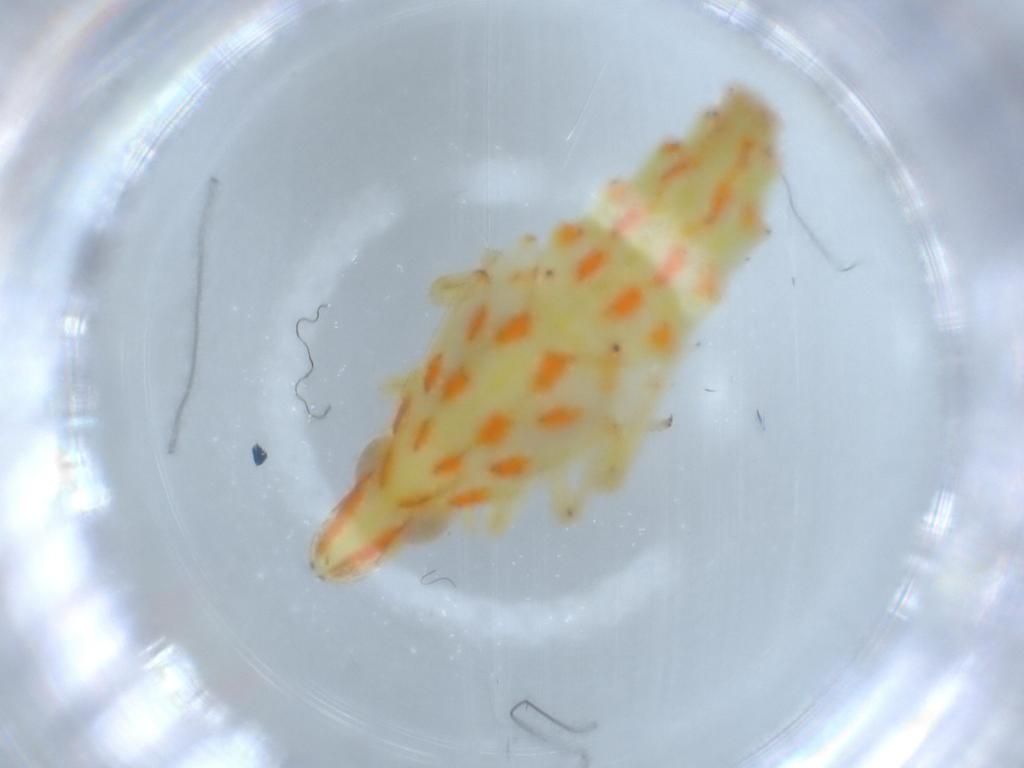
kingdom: Animalia
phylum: Arthropoda
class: Insecta
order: Hemiptera
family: Tropiduchidae
